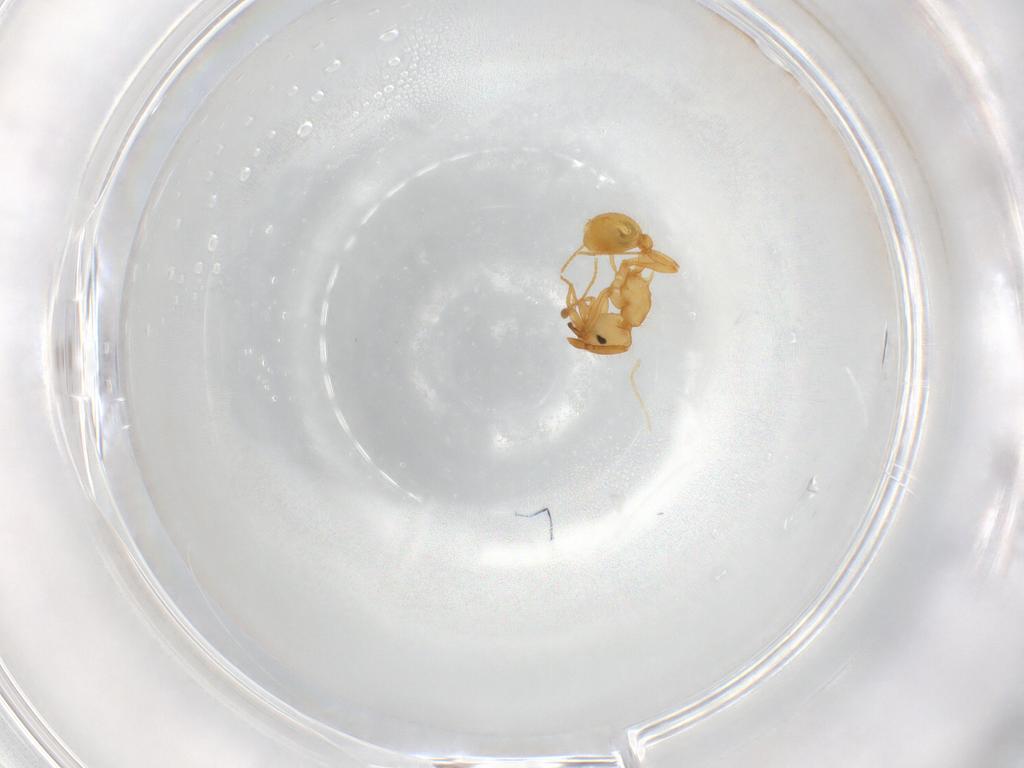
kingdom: Animalia
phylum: Arthropoda
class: Insecta
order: Hymenoptera
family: Formicidae
